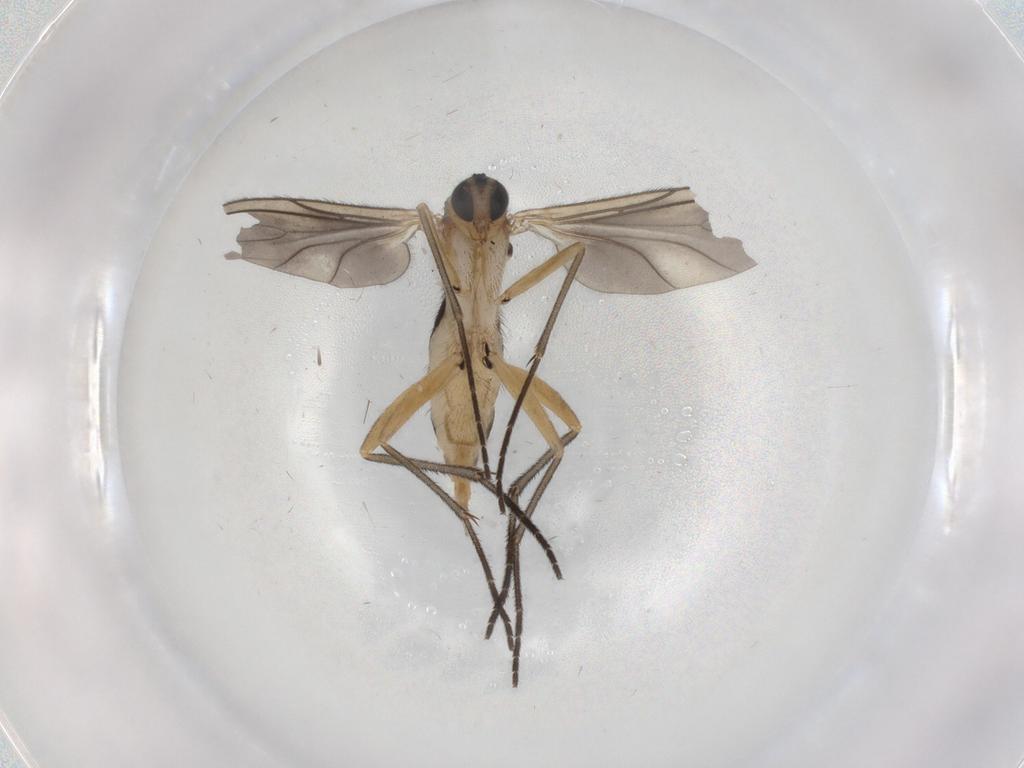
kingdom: Animalia
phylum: Arthropoda
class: Insecta
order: Diptera
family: Sciaridae
